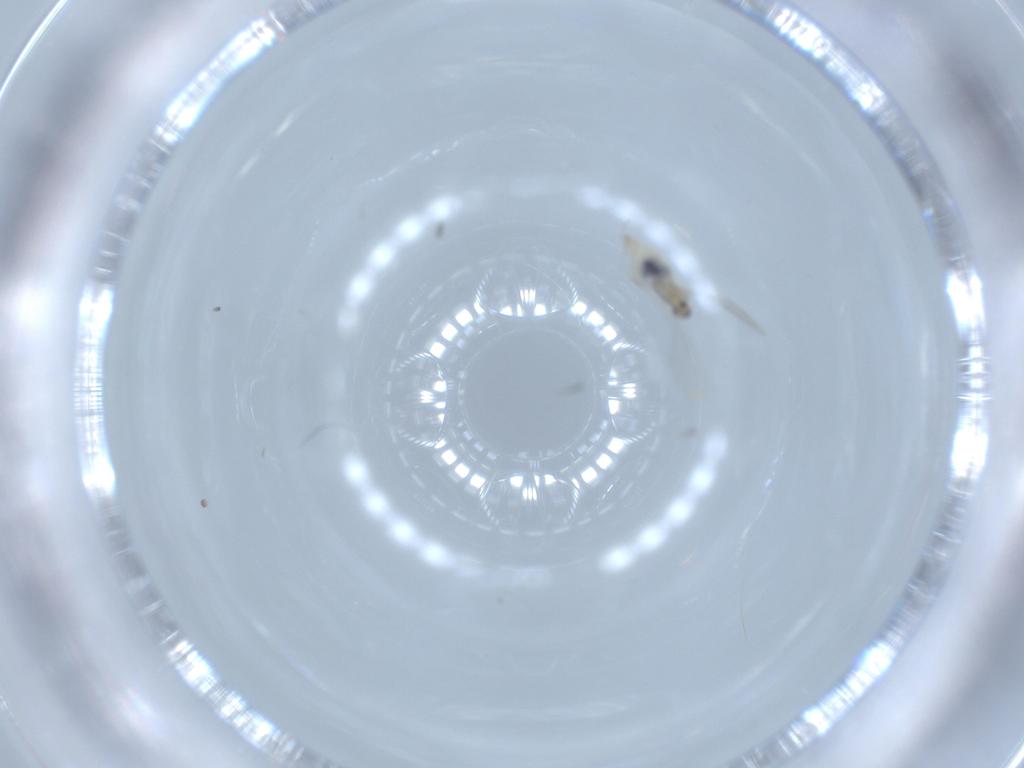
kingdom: Animalia
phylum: Arthropoda
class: Insecta
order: Diptera
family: Cecidomyiidae
